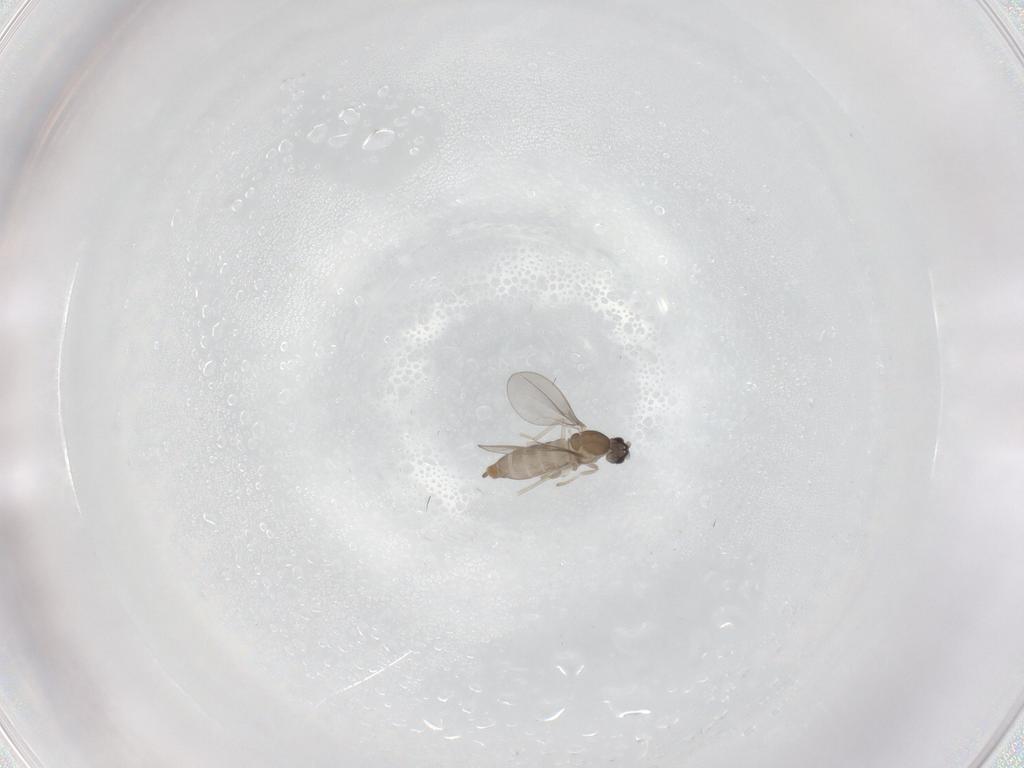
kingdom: Animalia
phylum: Arthropoda
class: Insecta
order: Diptera
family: Cecidomyiidae
